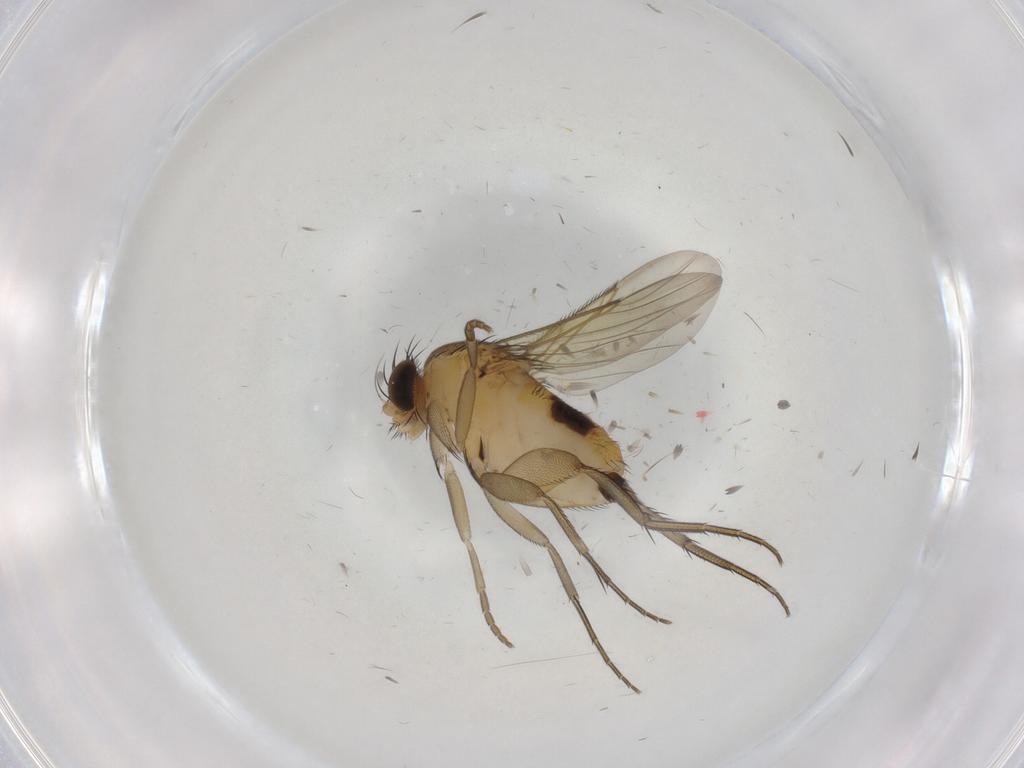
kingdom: Animalia
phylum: Arthropoda
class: Insecta
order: Diptera
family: Phoridae
